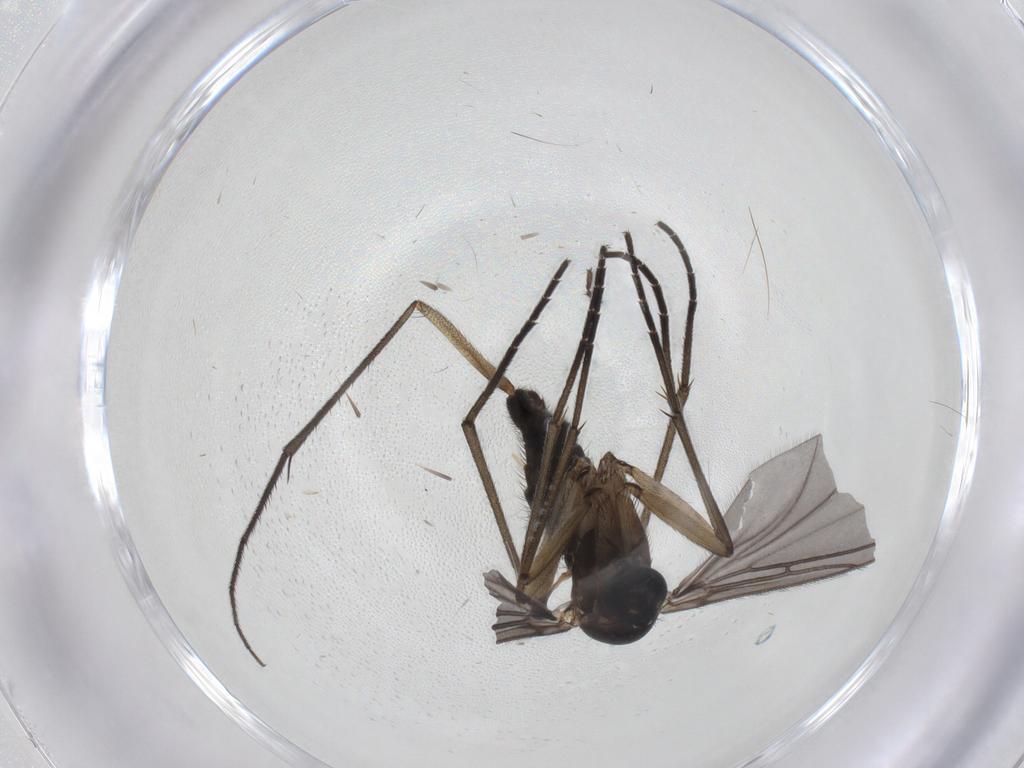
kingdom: Animalia
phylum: Arthropoda
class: Insecta
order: Diptera
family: Sciaridae
